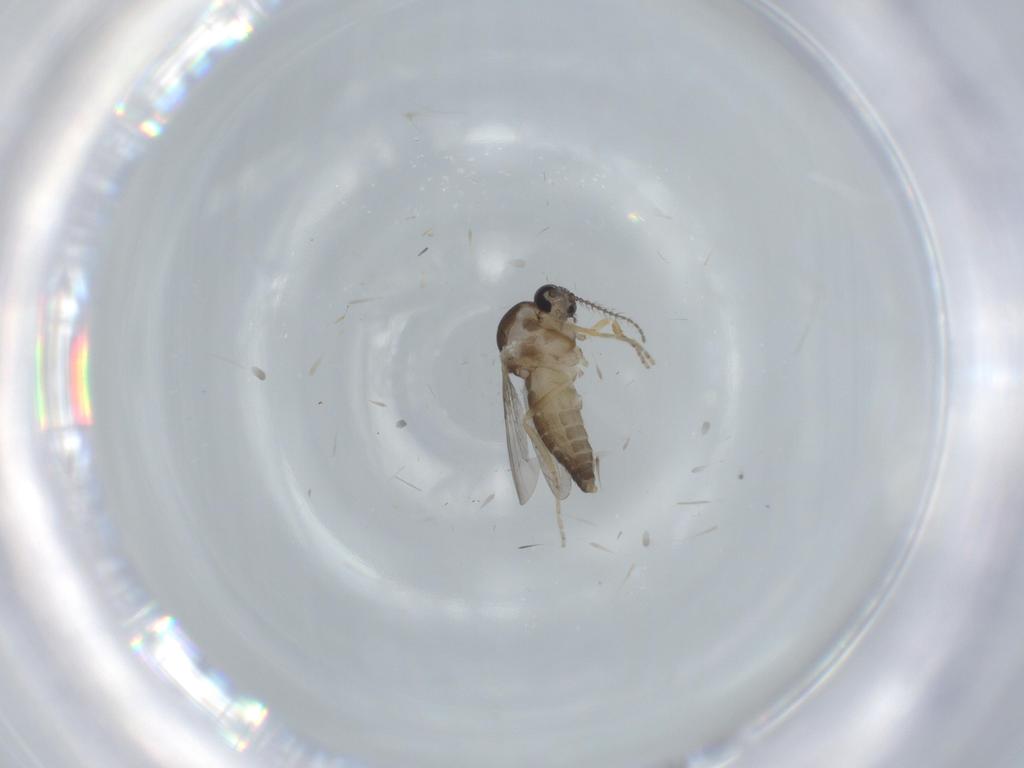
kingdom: Animalia
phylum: Arthropoda
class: Insecta
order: Diptera
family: Ceratopogonidae
